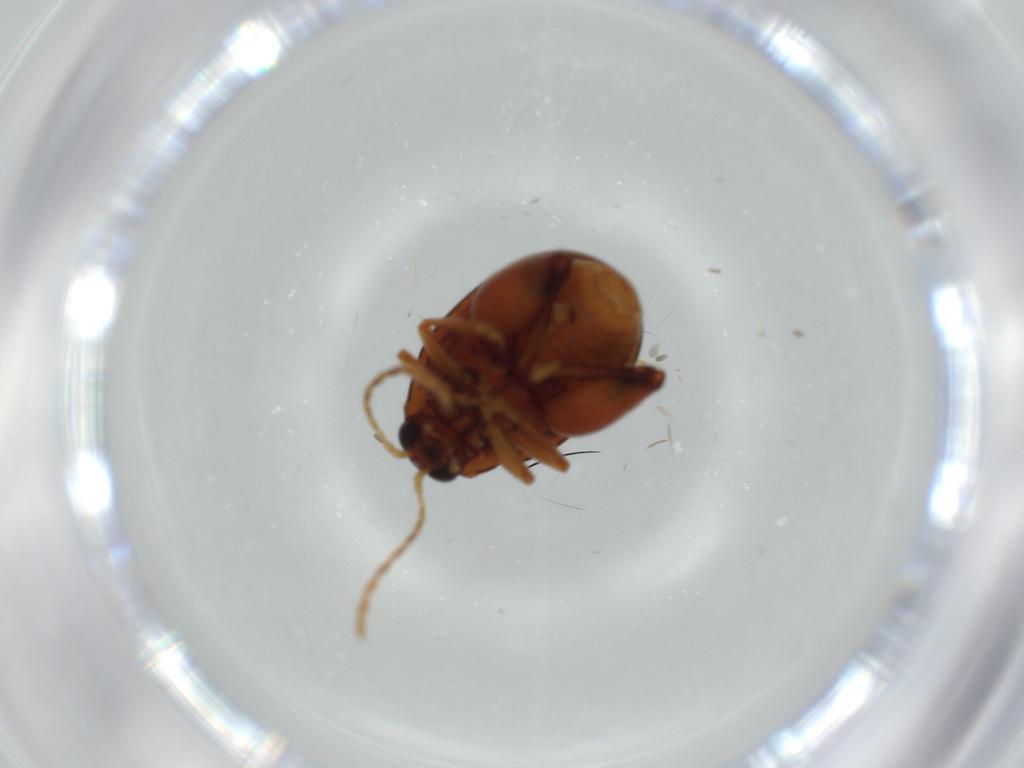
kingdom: Animalia
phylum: Arthropoda
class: Insecta
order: Coleoptera
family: Chrysomelidae
